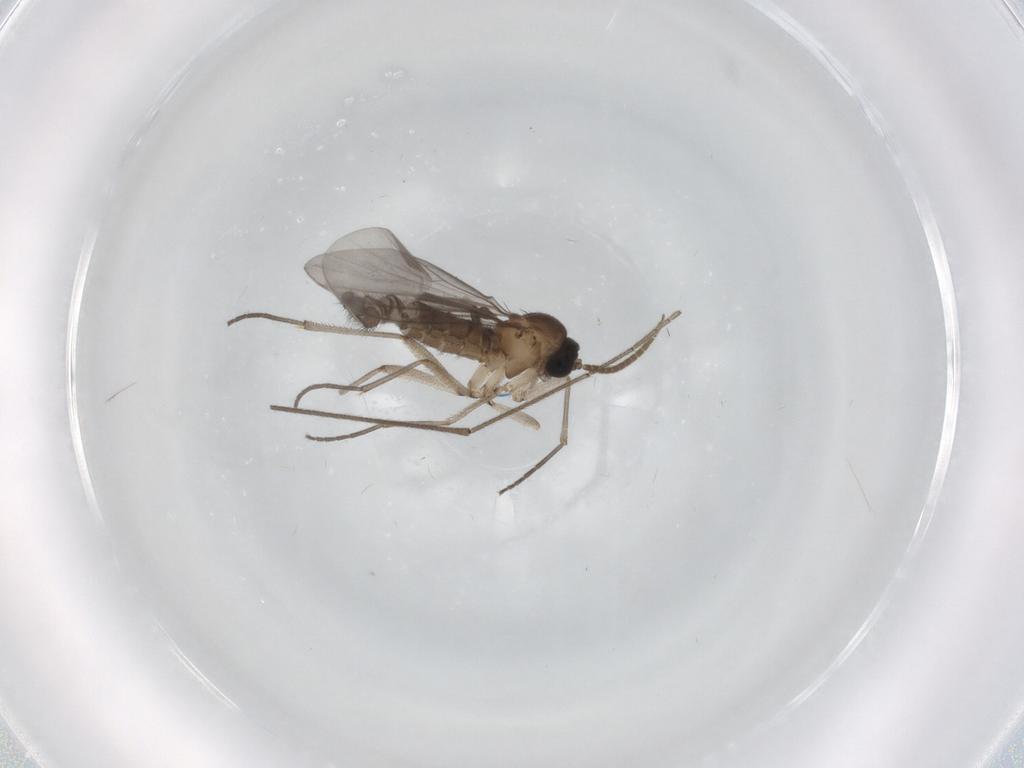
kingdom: Animalia
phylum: Arthropoda
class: Insecta
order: Diptera
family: Limoniidae
